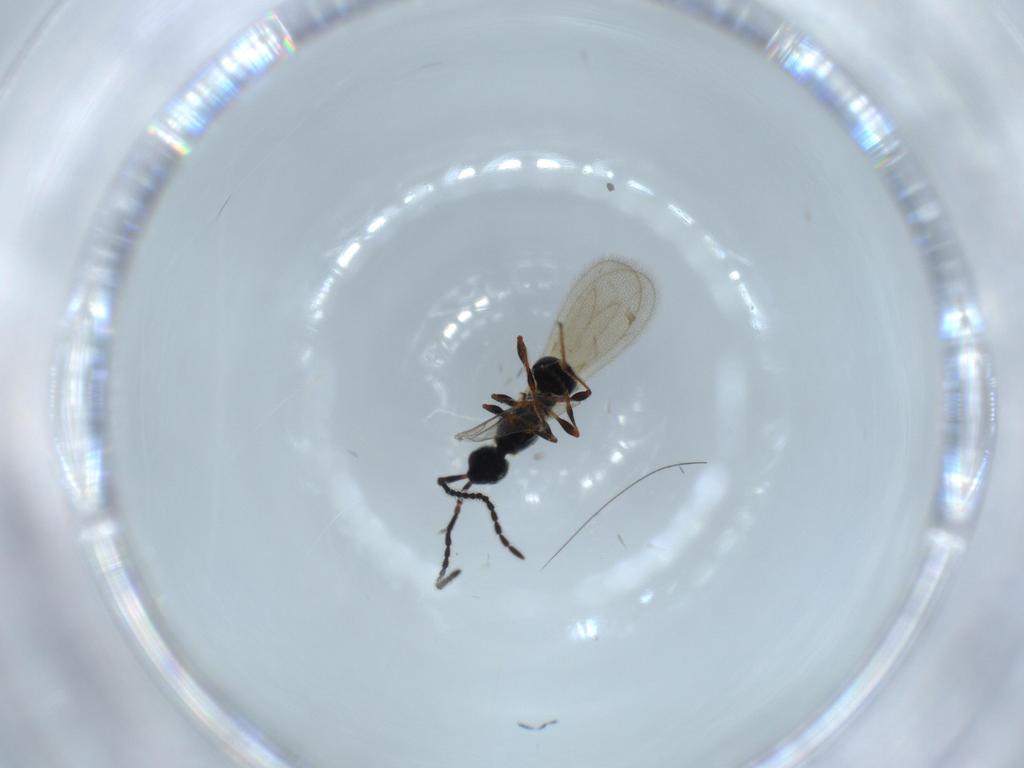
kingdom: Animalia
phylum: Arthropoda
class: Insecta
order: Hymenoptera
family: Diapriidae
